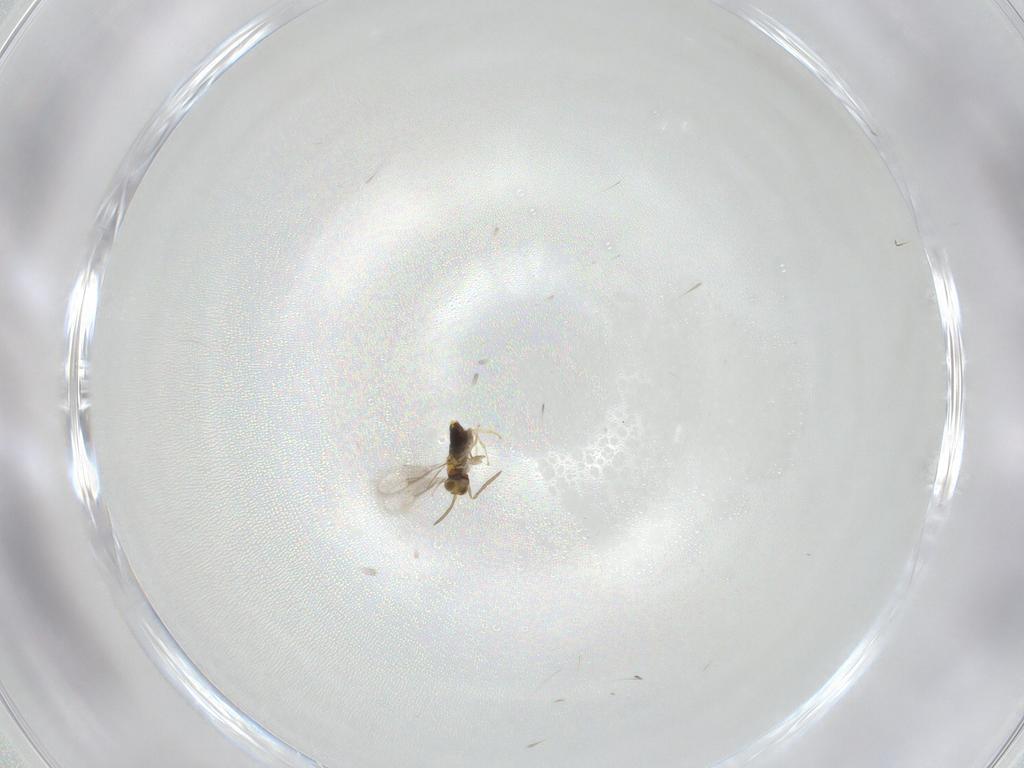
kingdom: Animalia
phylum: Arthropoda
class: Insecta
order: Hymenoptera
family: Aphelinidae
